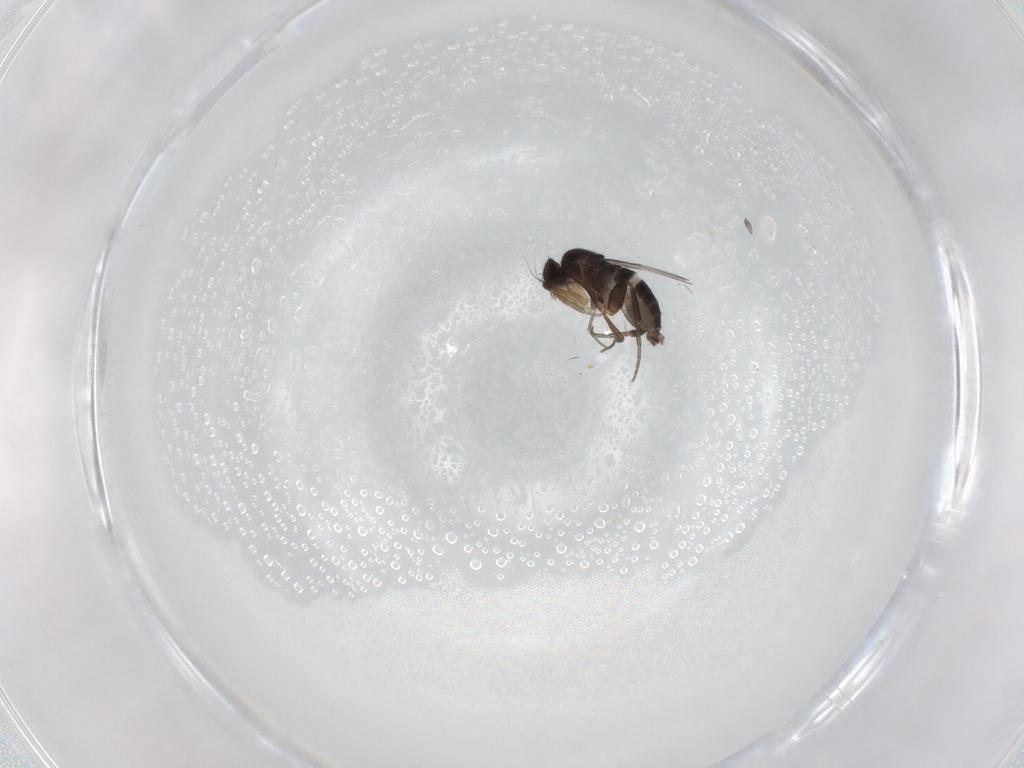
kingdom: Animalia
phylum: Arthropoda
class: Insecta
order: Diptera
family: Phoridae
